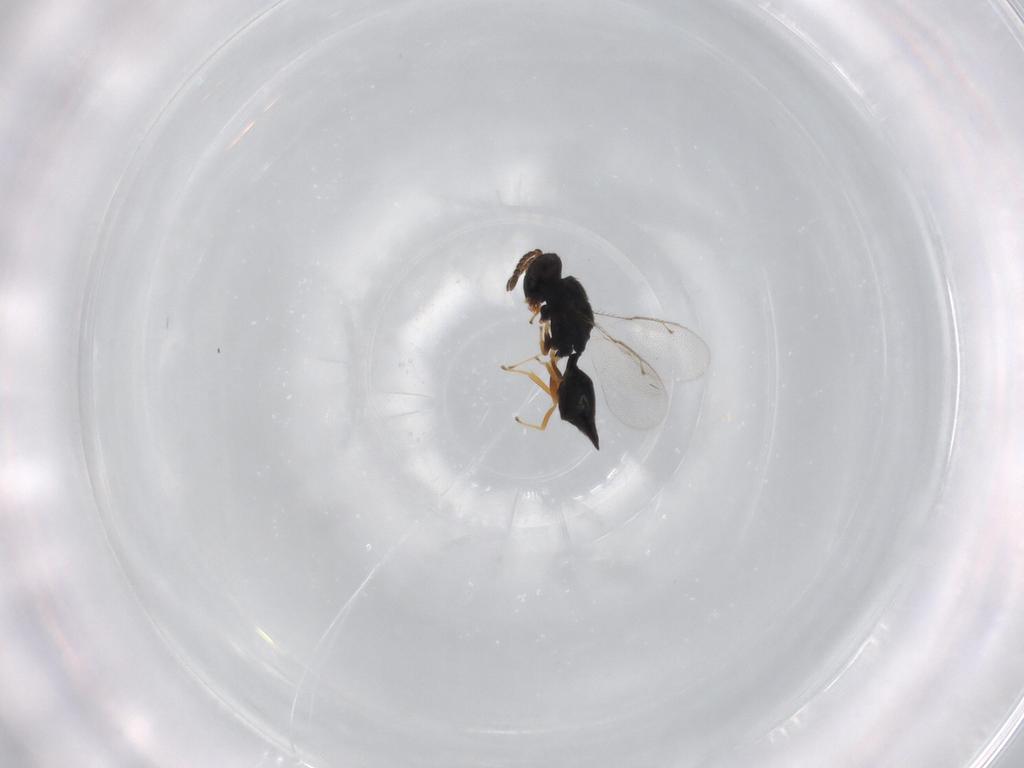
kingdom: Animalia
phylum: Arthropoda
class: Insecta
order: Hymenoptera
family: Pteromalidae
